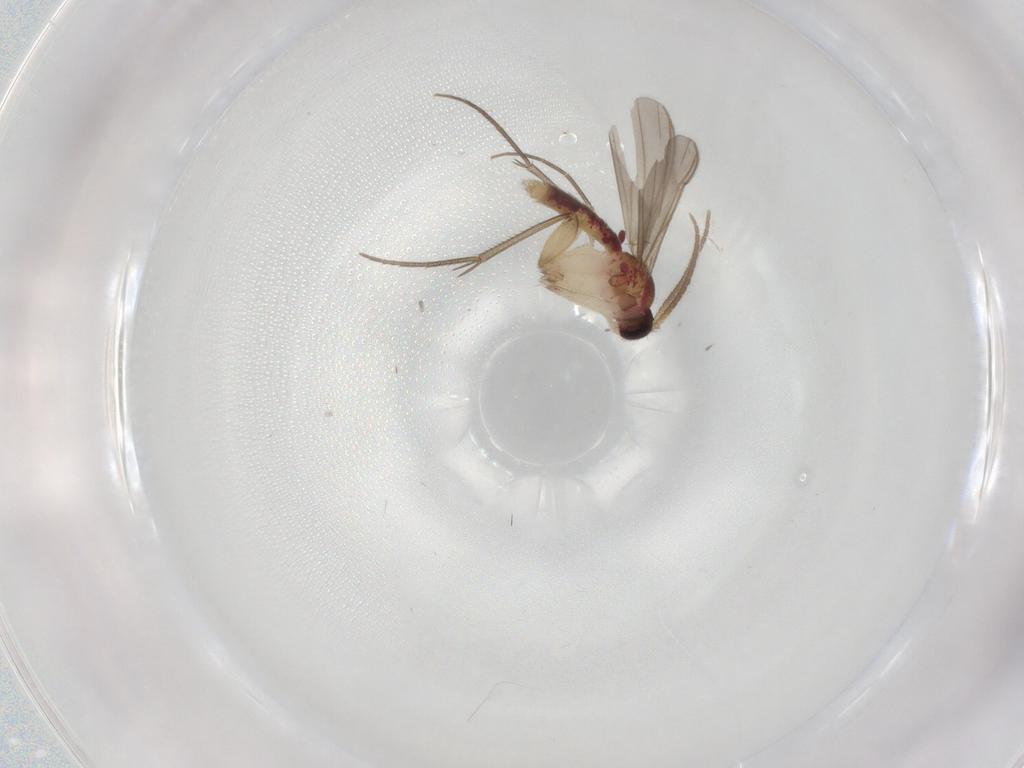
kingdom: Animalia
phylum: Arthropoda
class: Insecta
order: Diptera
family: Mycetophilidae
